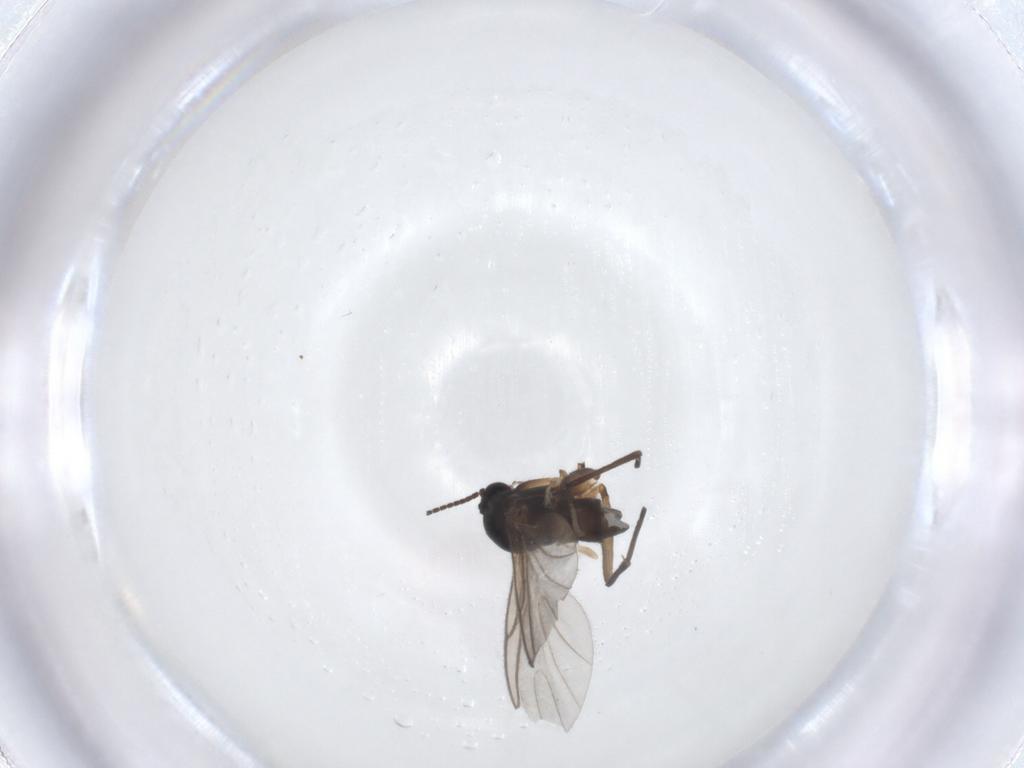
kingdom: Animalia
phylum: Arthropoda
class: Insecta
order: Diptera
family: Sciaridae
